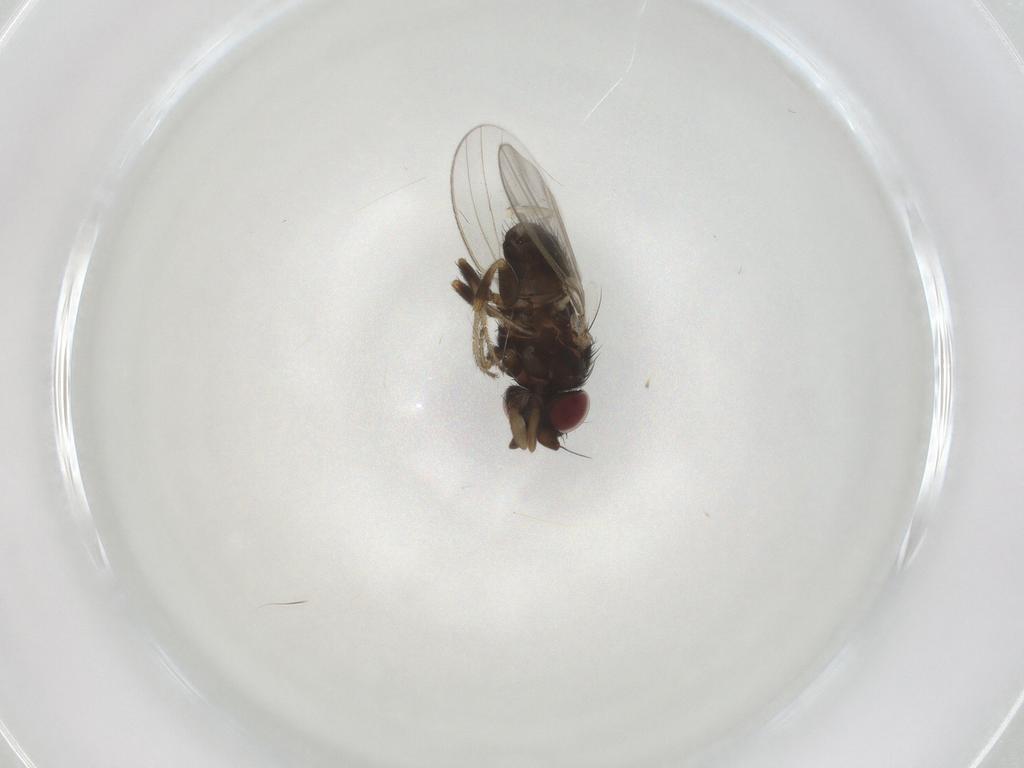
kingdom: Animalia
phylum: Arthropoda
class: Insecta
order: Diptera
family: Milichiidae
